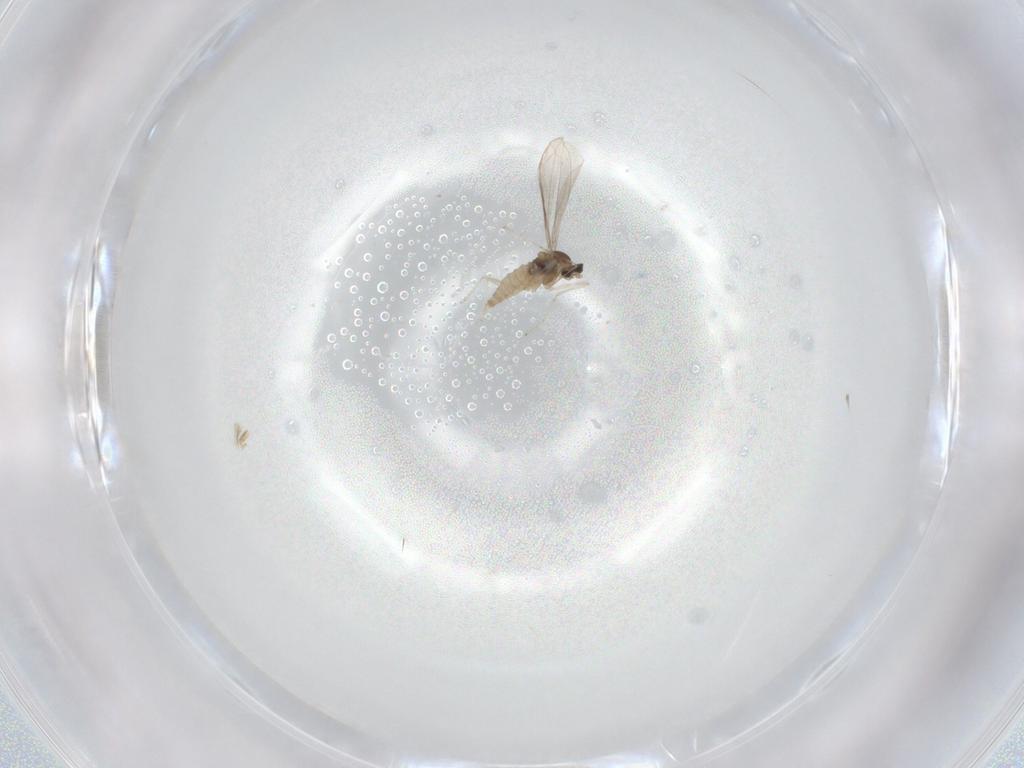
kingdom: Animalia
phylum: Arthropoda
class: Insecta
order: Diptera
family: Cecidomyiidae
